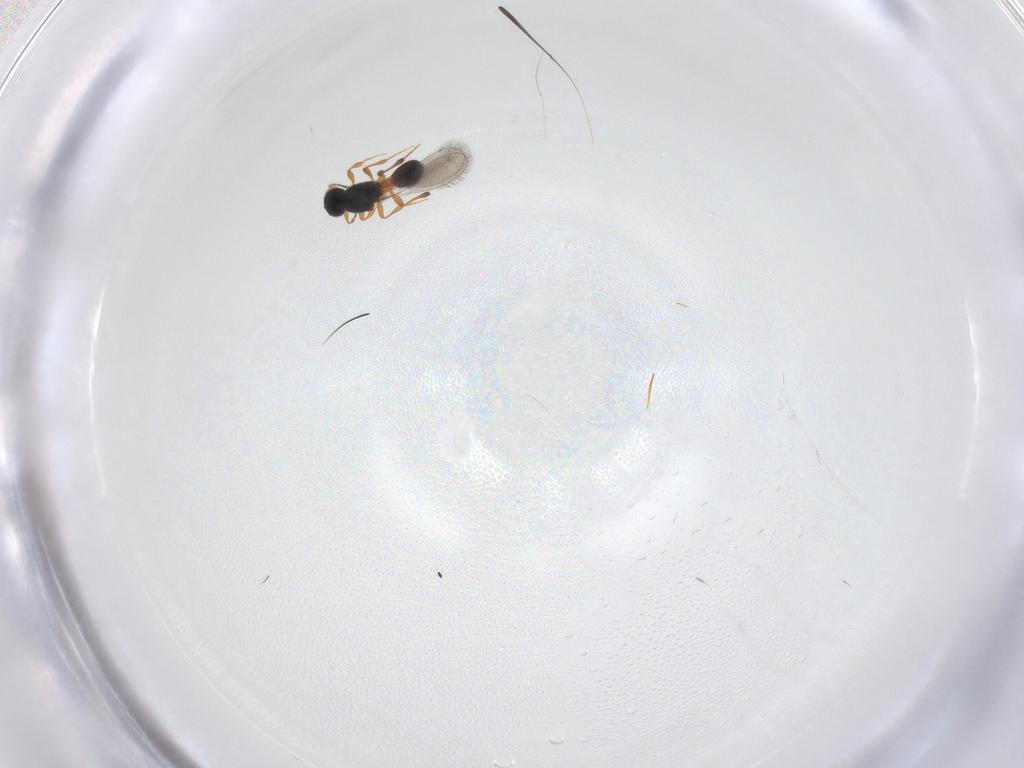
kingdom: Animalia
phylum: Arthropoda
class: Insecta
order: Hymenoptera
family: Platygastridae
